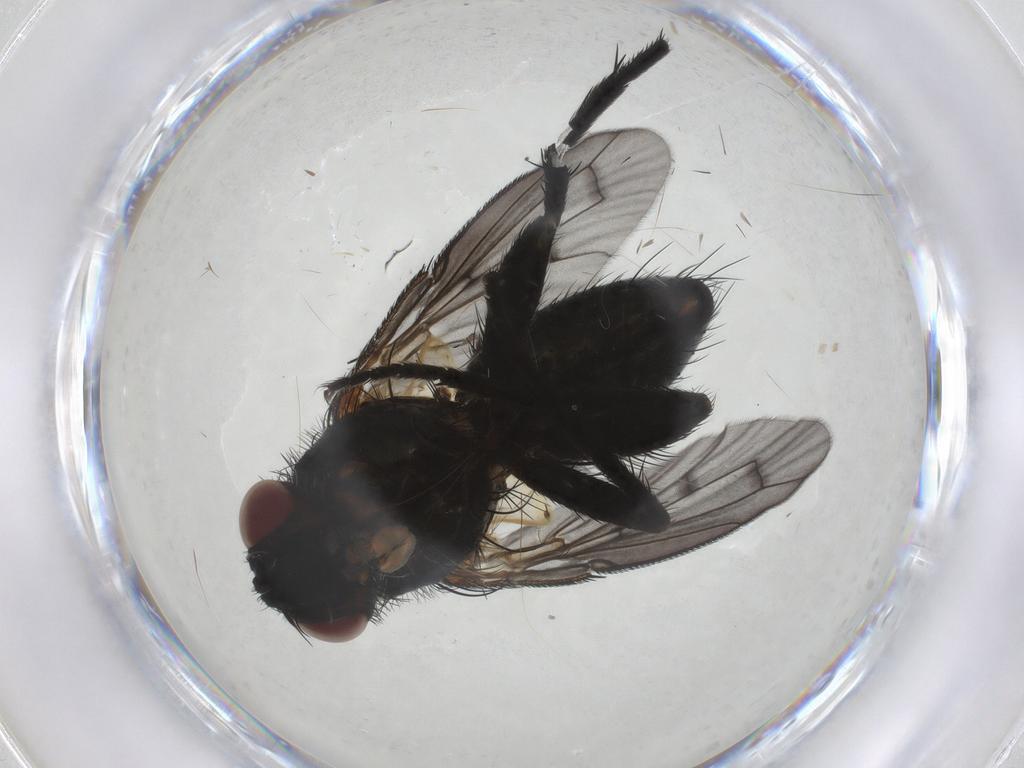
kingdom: Animalia
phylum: Arthropoda
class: Insecta
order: Diptera
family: Tachinidae
